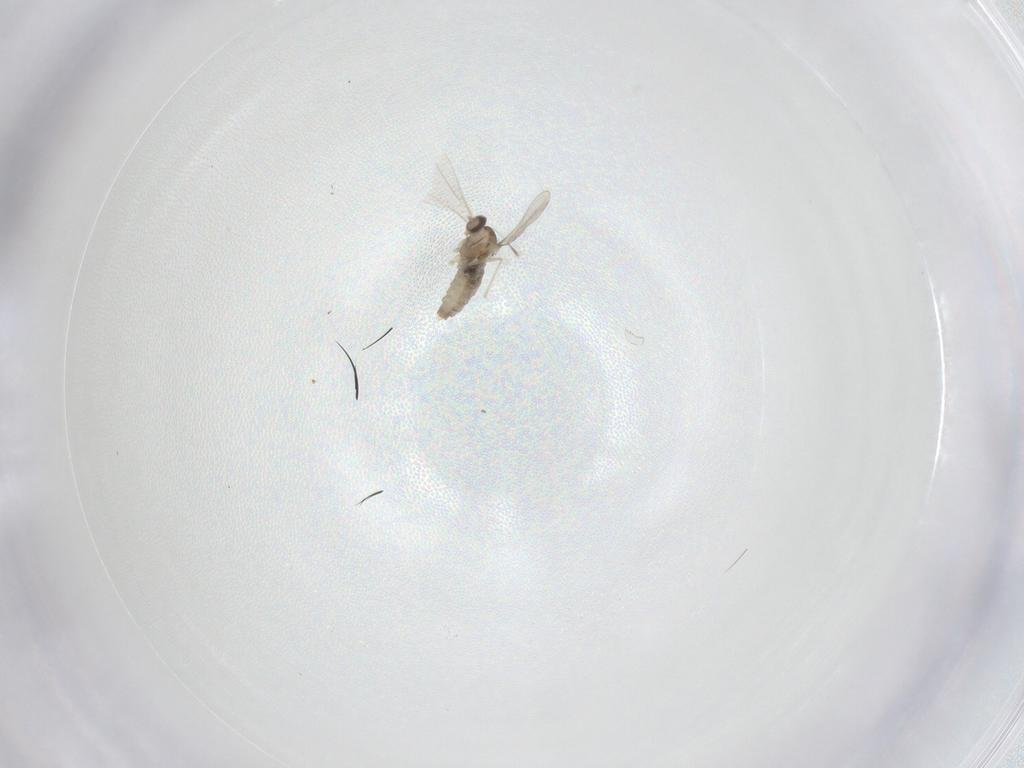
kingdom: Animalia
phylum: Arthropoda
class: Insecta
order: Diptera
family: Cecidomyiidae
